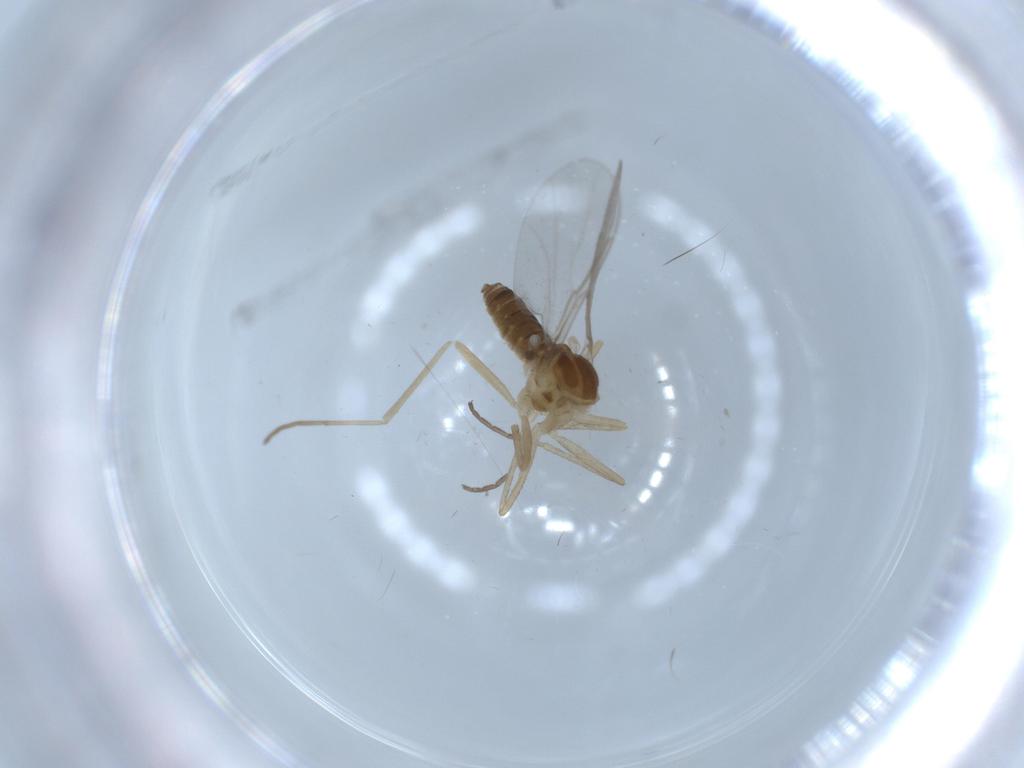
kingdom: Animalia
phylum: Arthropoda
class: Insecta
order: Diptera
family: Cecidomyiidae
